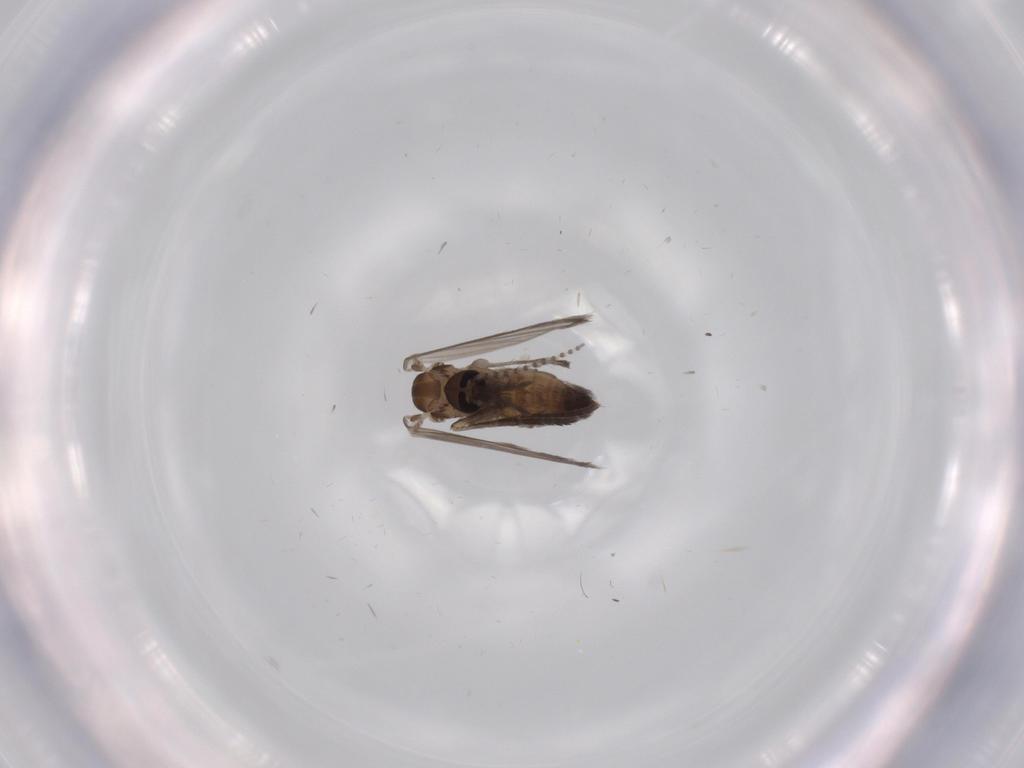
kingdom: Animalia
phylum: Arthropoda
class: Insecta
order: Diptera
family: Psychodidae
